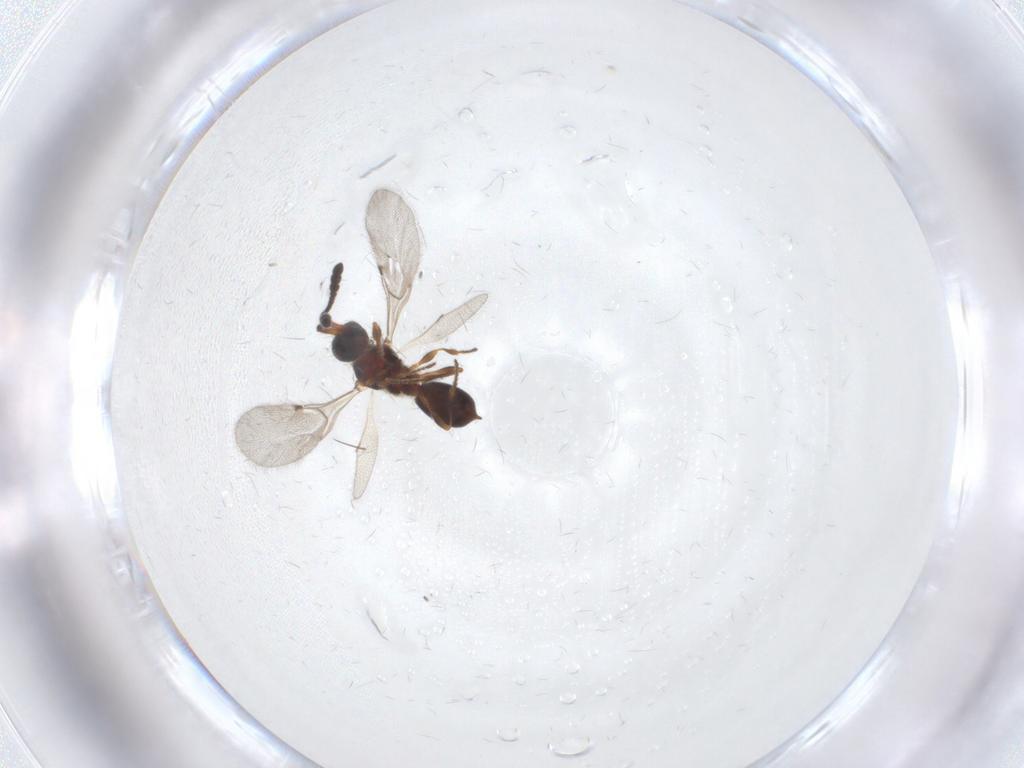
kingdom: Animalia
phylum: Arthropoda
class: Insecta
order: Hymenoptera
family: Diapriidae
